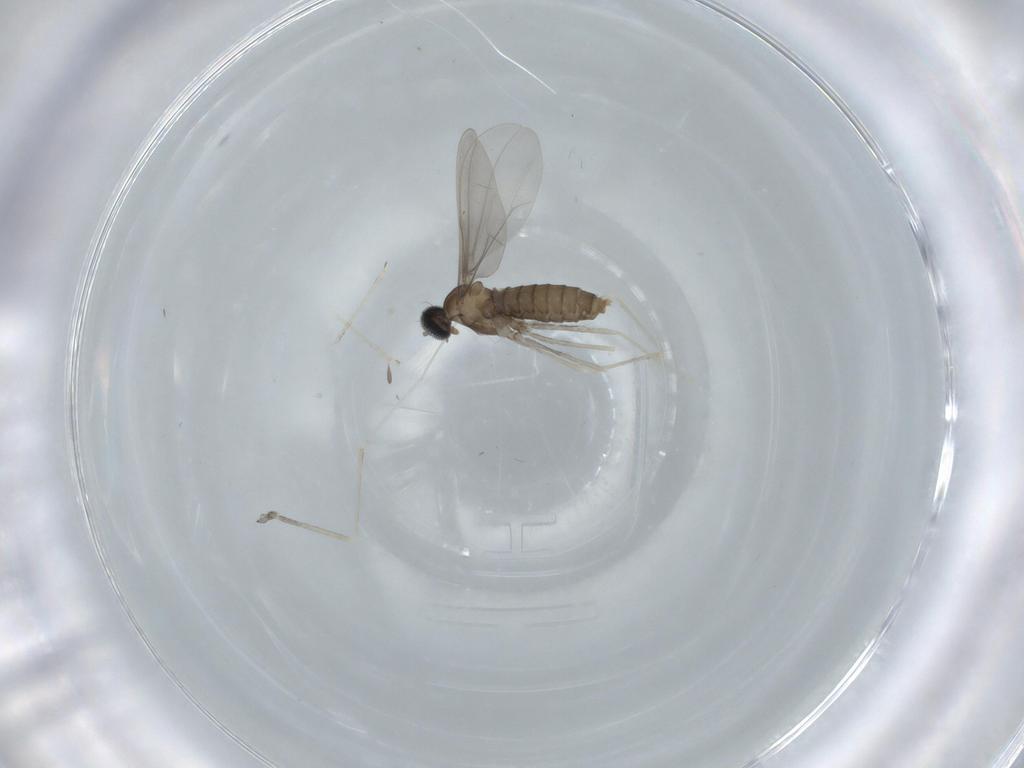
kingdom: Animalia
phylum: Arthropoda
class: Insecta
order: Diptera
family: Cecidomyiidae
